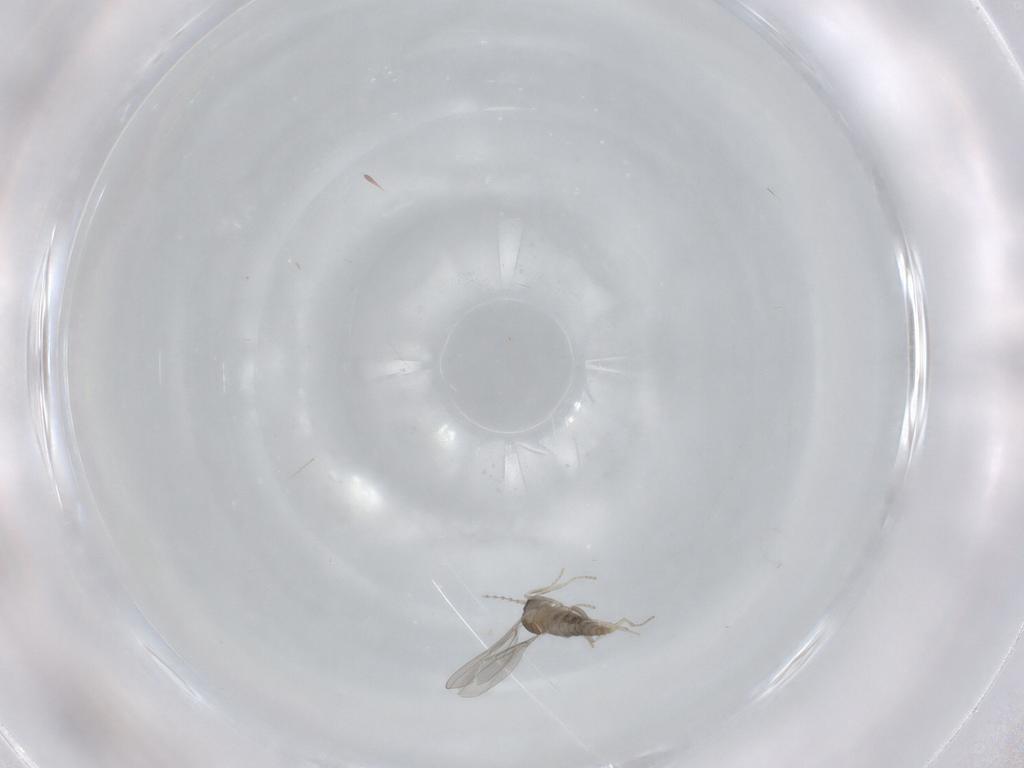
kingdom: Animalia
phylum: Arthropoda
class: Insecta
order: Diptera
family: Cecidomyiidae
